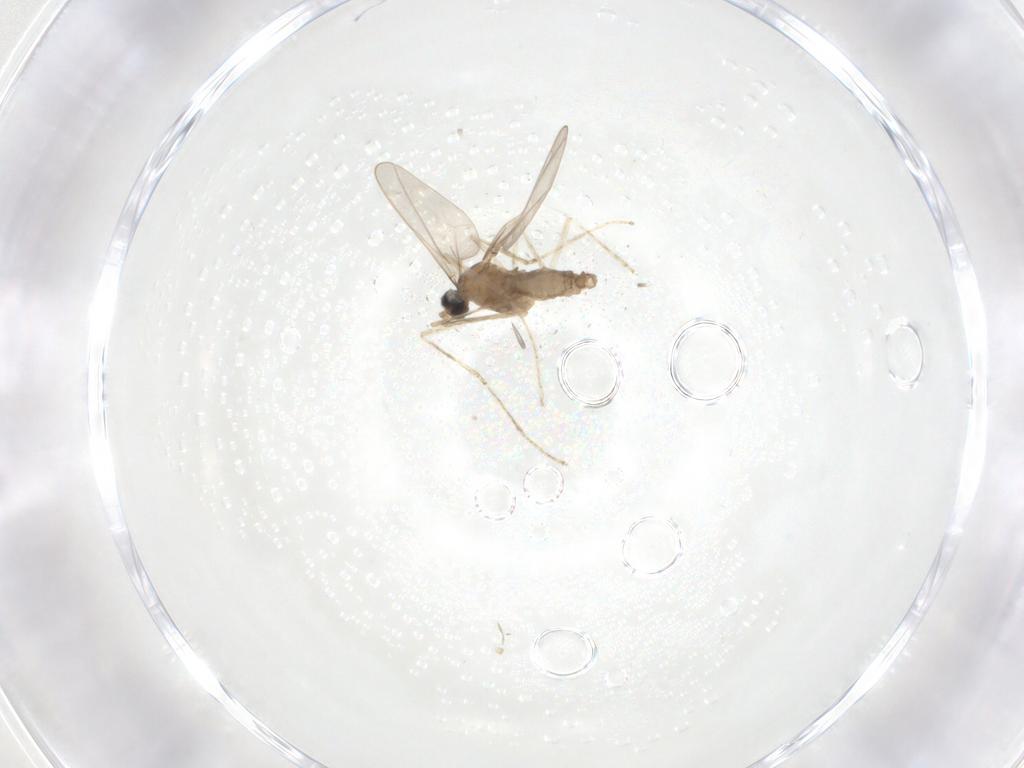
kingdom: Animalia
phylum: Arthropoda
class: Insecta
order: Diptera
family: Cecidomyiidae
